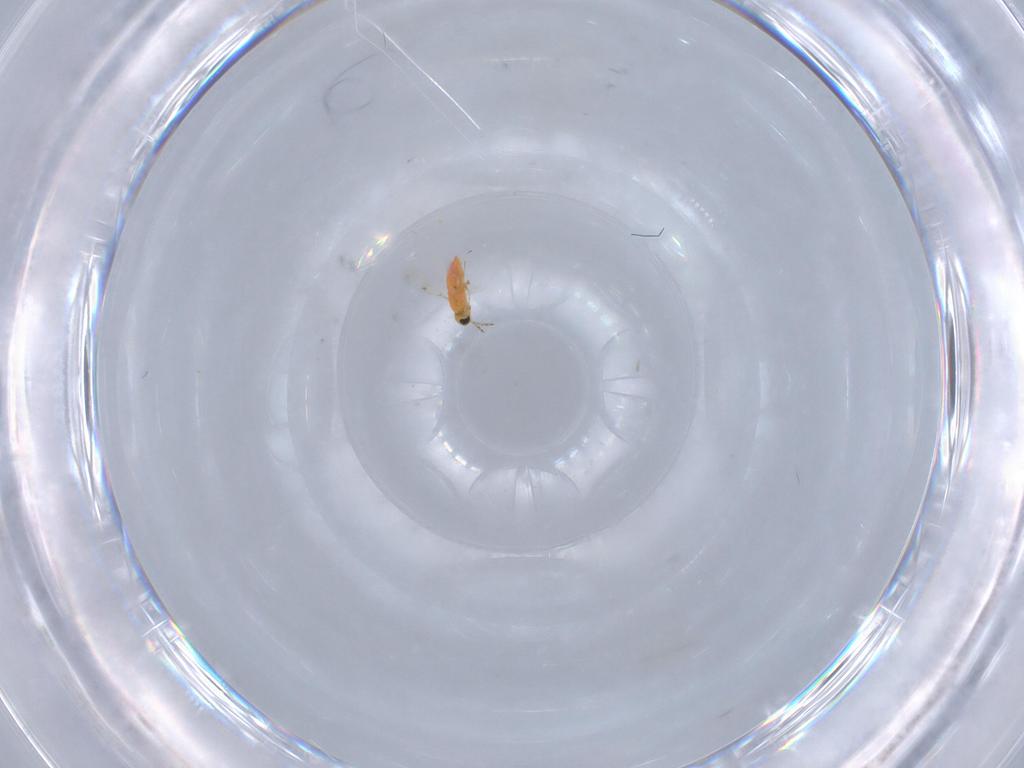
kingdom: Animalia
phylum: Arthropoda
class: Insecta
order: Hymenoptera
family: Trichogrammatidae
